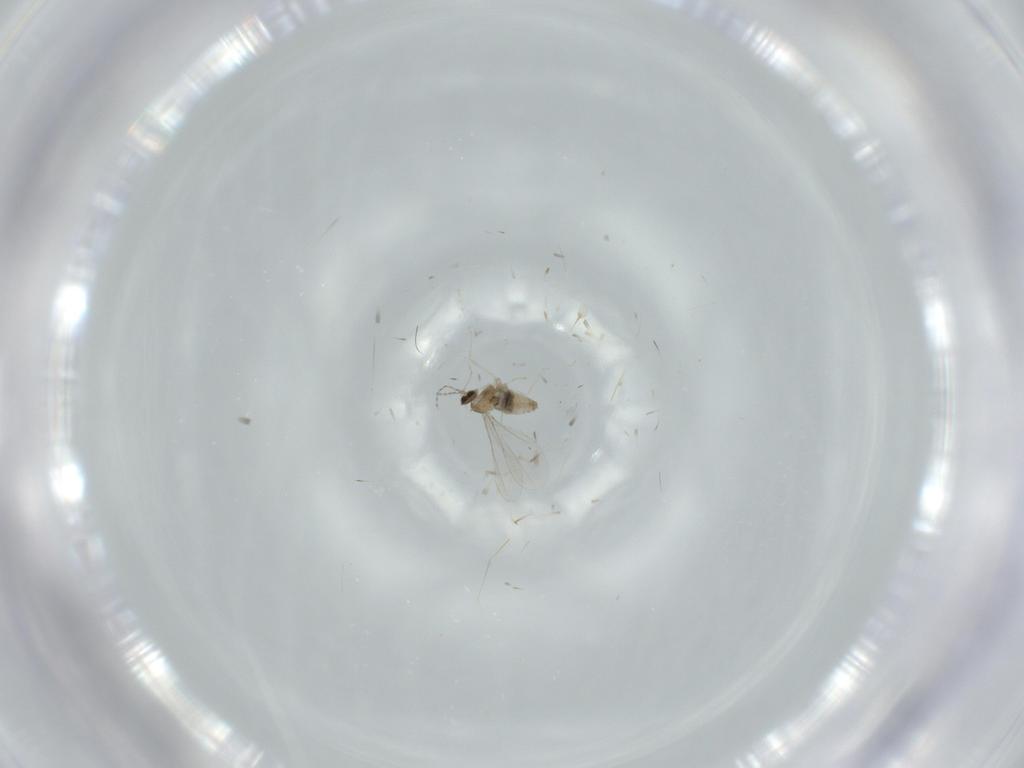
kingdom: Animalia
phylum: Arthropoda
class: Insecta
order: Diptera
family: Cecidomyiidae
